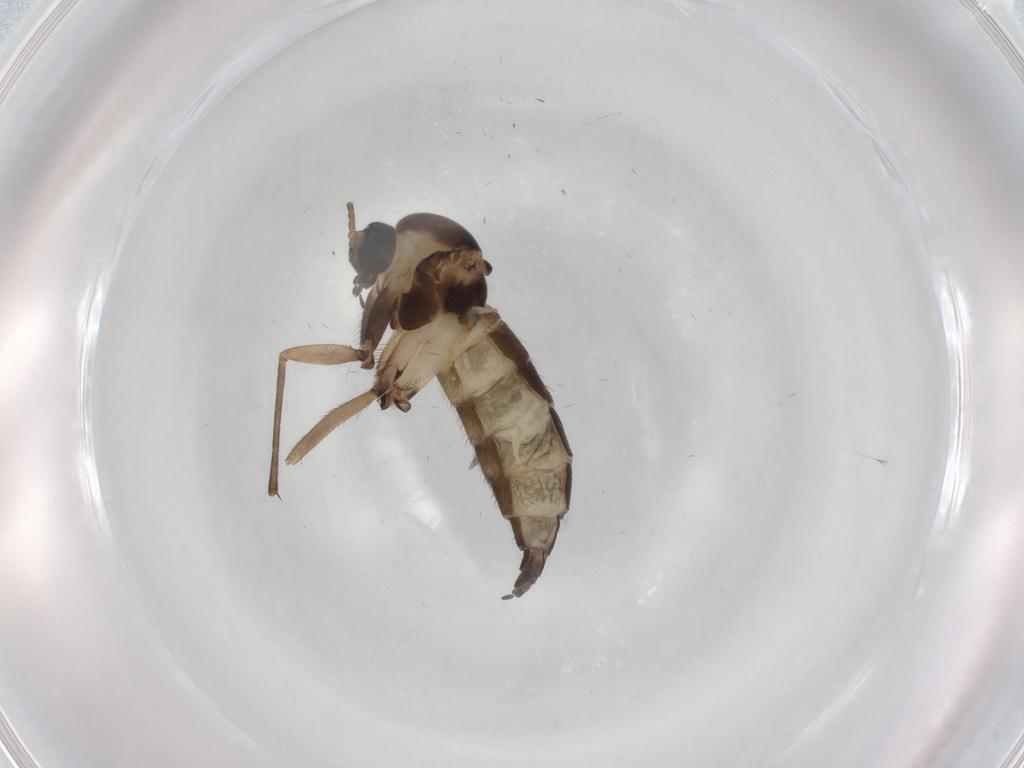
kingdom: Animalia
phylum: Arthropoda
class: Insecta
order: Diptera
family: Sciaridae
